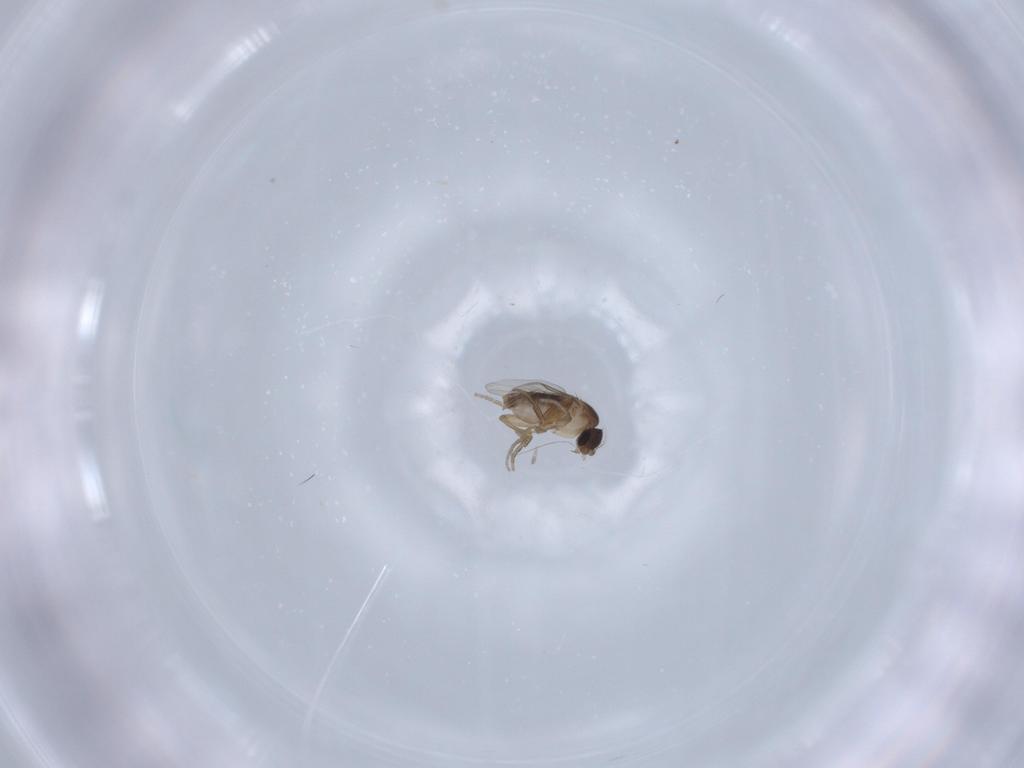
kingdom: Animalia
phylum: Arthropoda
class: Insecta
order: Diptera
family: Phoridae
